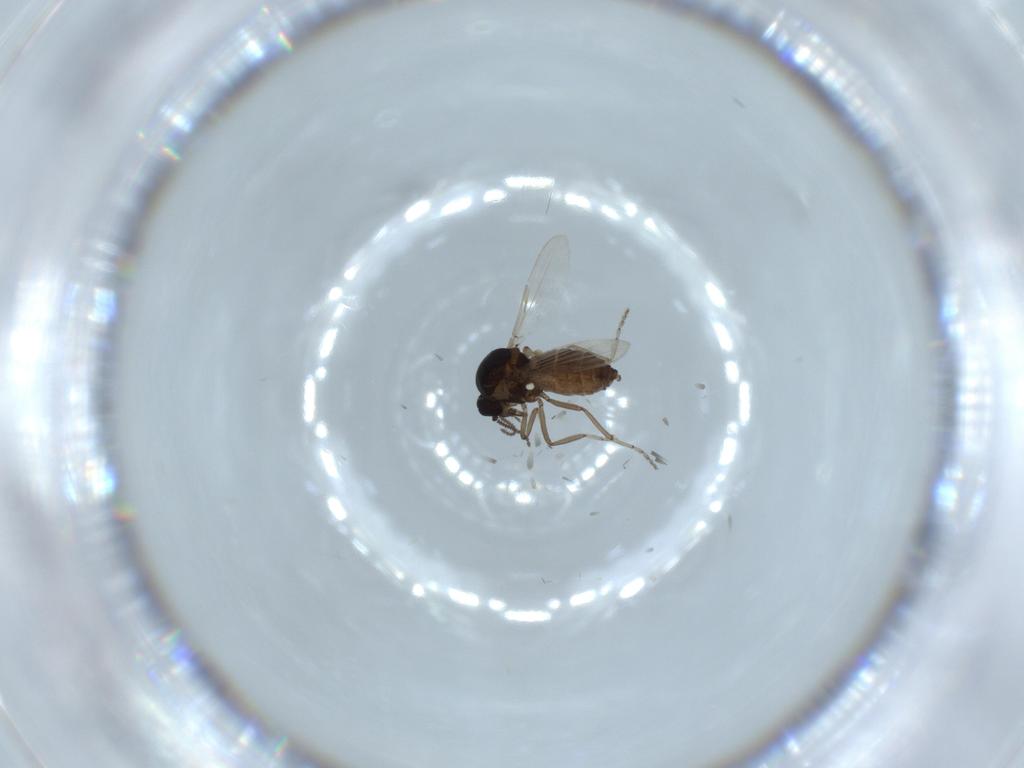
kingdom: Animalia
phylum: Arthropoda
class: Insecta
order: Diptera
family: Ceratopogonidae
